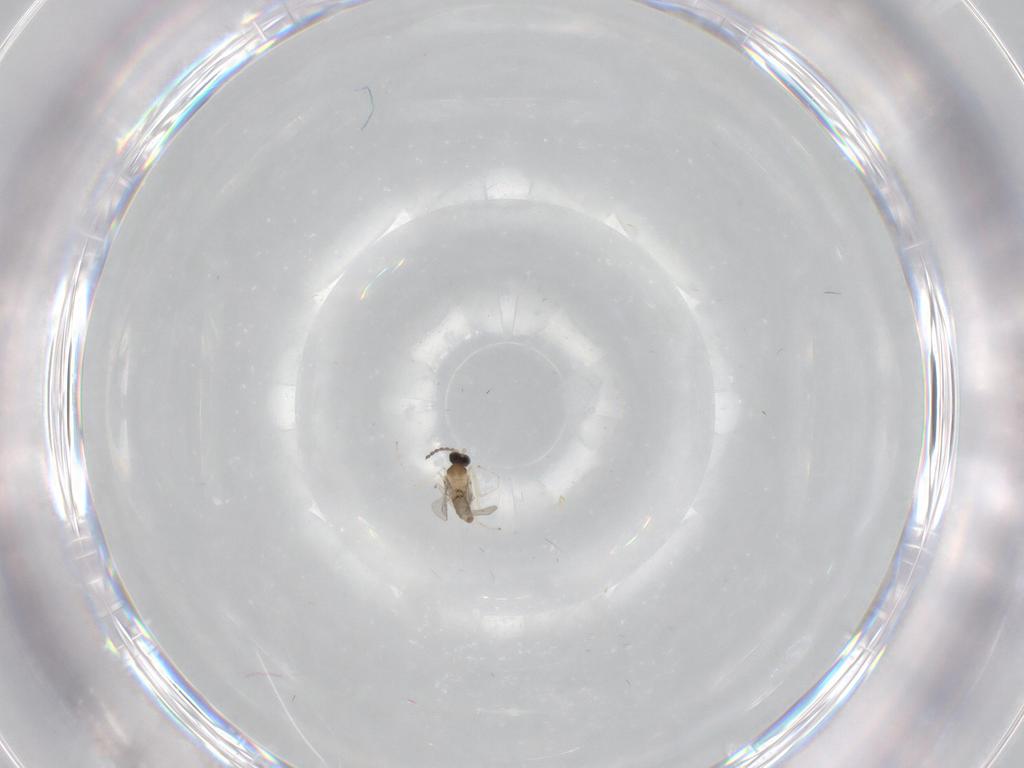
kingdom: Animalia
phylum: Arthropoda
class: Insecta
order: Diptera
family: Cecidomyiidae
